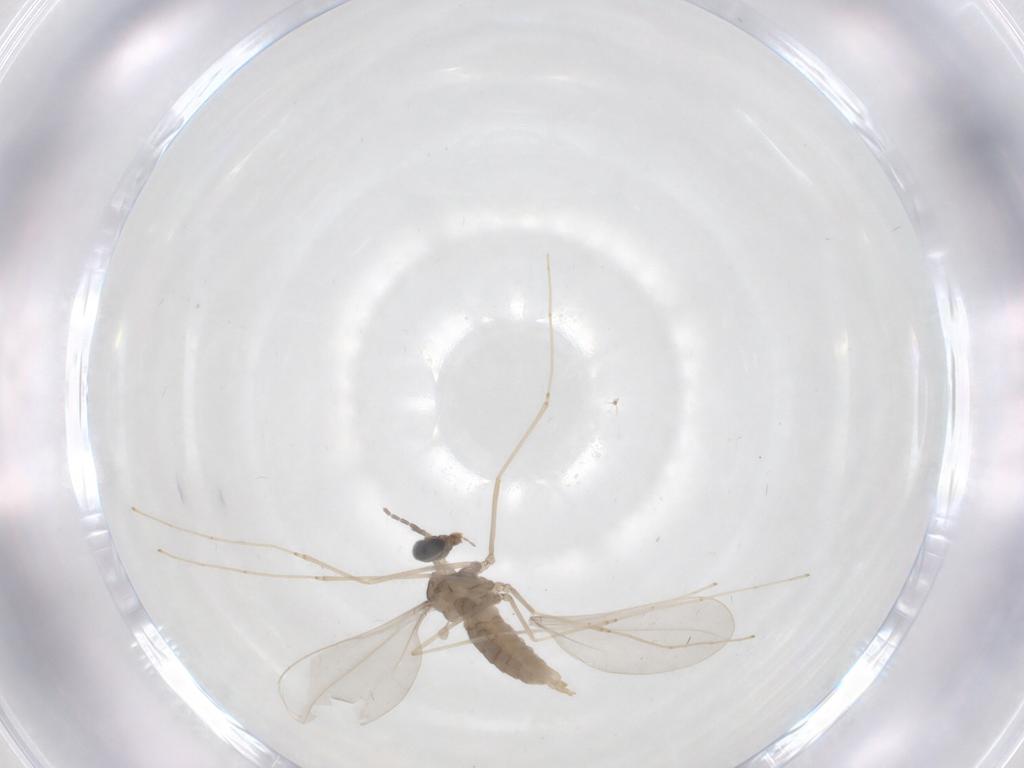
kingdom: Animalia
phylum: Arthropoda
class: Insecta
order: Diptera
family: Cecidomyiidae
